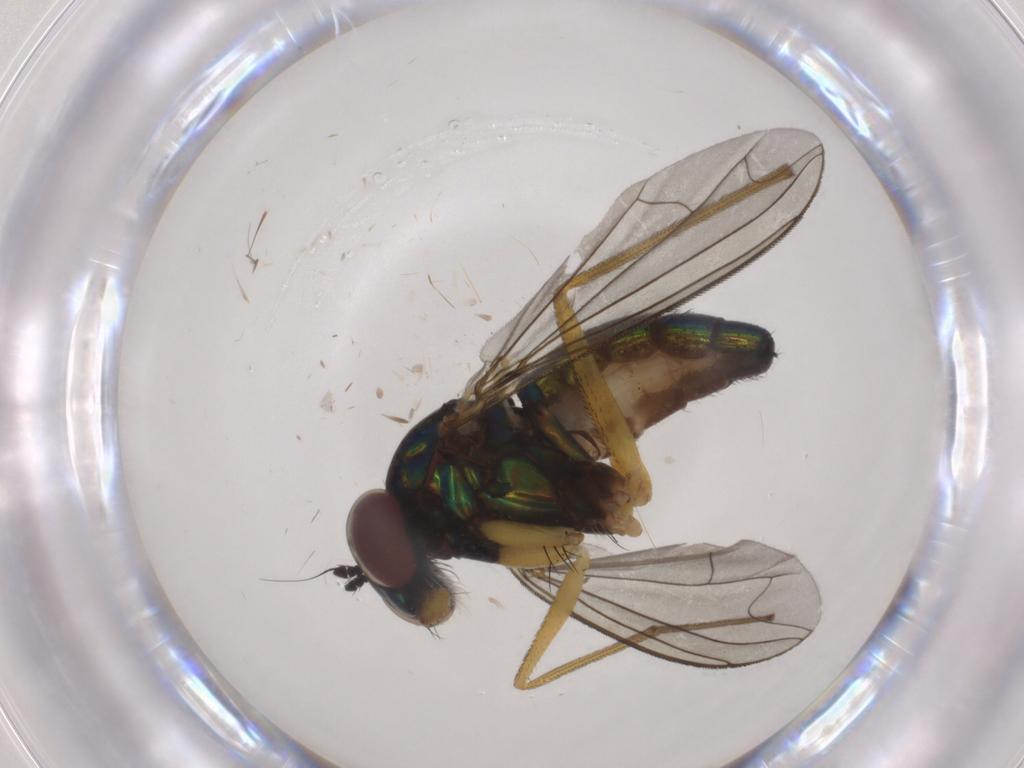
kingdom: Animalia
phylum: Arthropoda
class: Insecta
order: Diptera
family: Dolichopodidae
